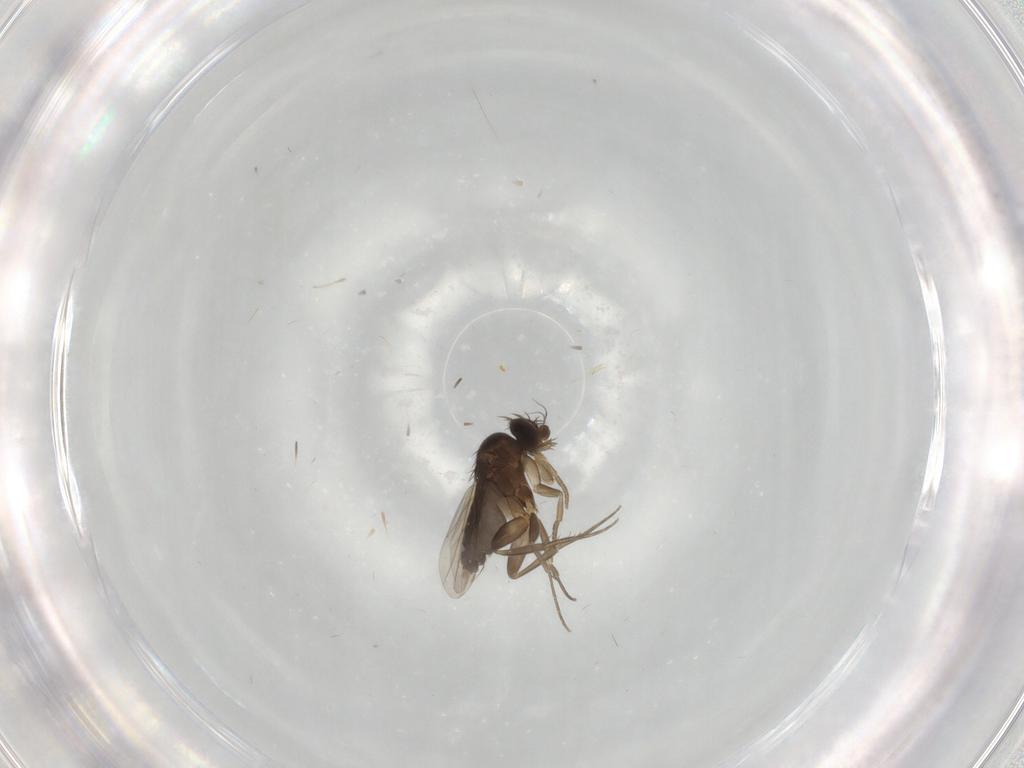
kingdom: Animalia
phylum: Arthropoda
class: Insecta
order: Diptera
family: Phoridae
